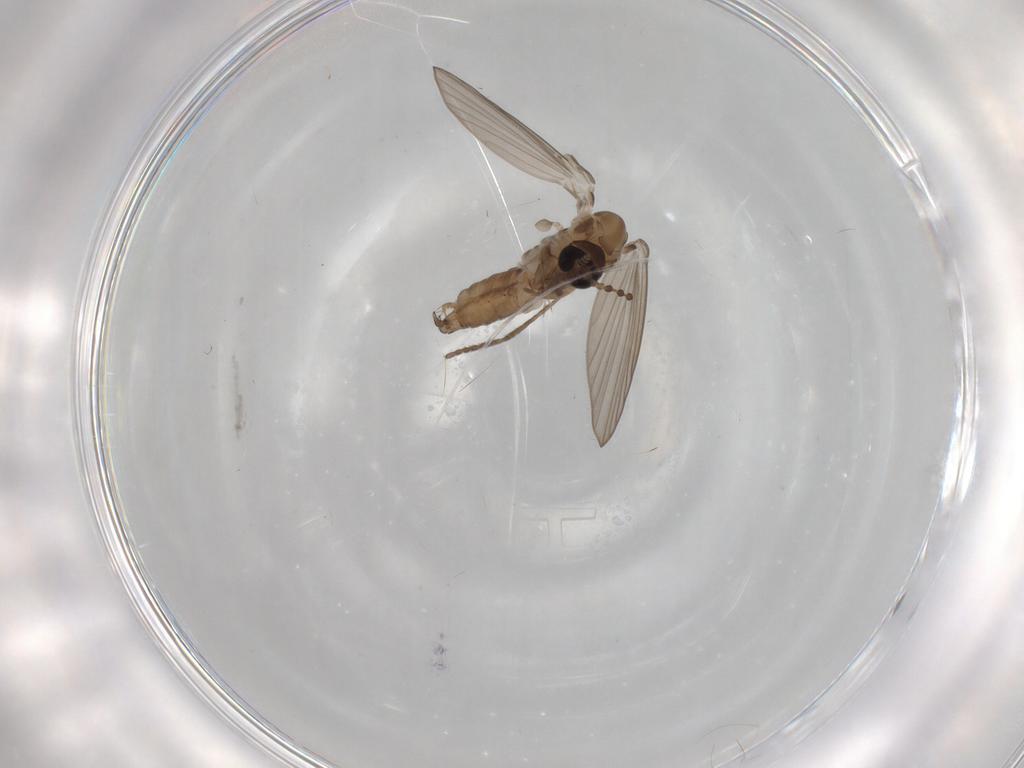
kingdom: Animalia
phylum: Arthropoda
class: Insecta
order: Diptera
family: Psychodidae
